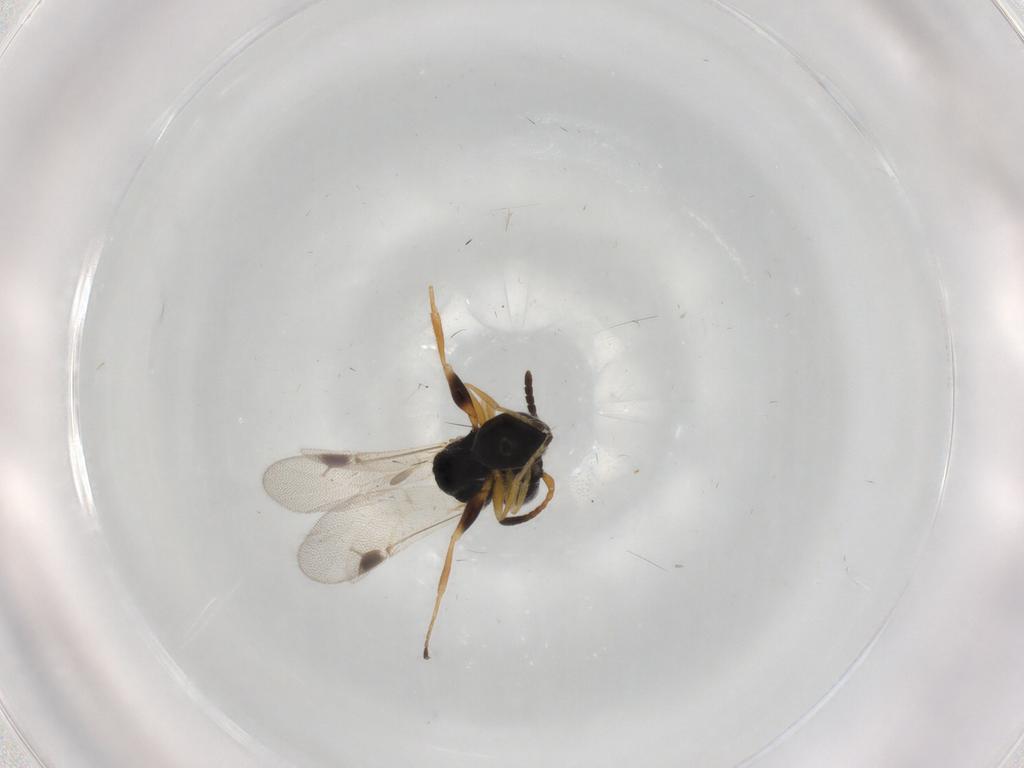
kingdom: Animalia
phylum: Arthropoda
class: Insecta
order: Hymenoptera
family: Dryinidae
